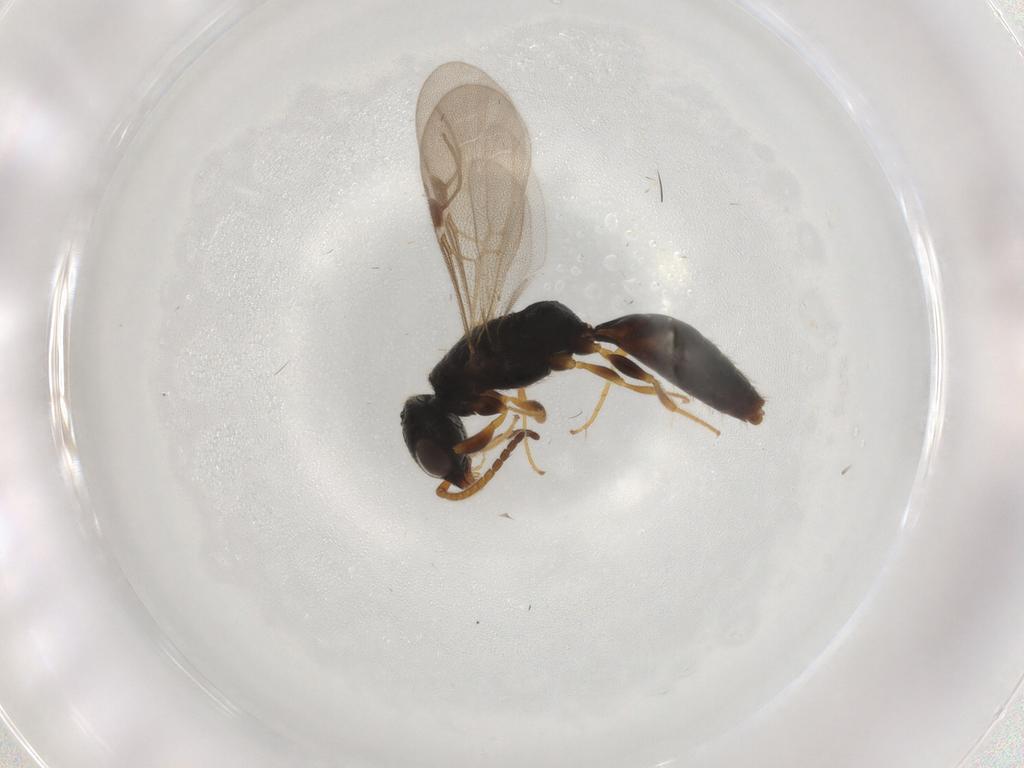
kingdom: Animalia
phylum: Arthropoda
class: Insecta
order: Hymenoptera
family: Bethylidae
